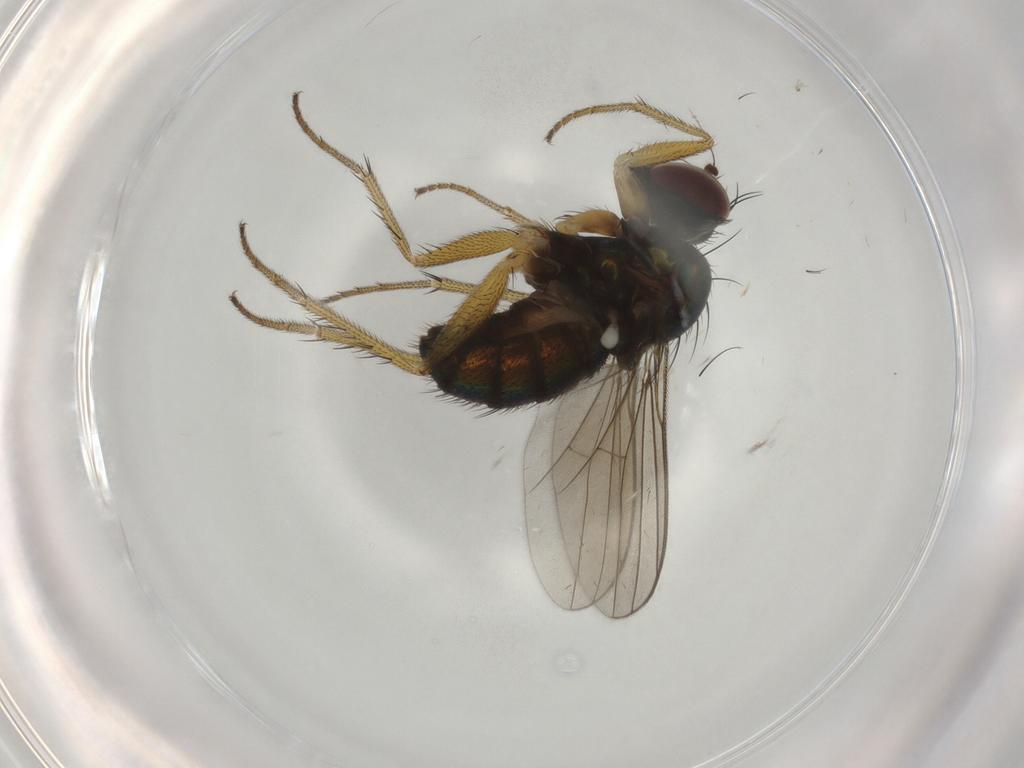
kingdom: Animalia
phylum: Arthropoda
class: Insecta
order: Diptera
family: Dolichopodidae
